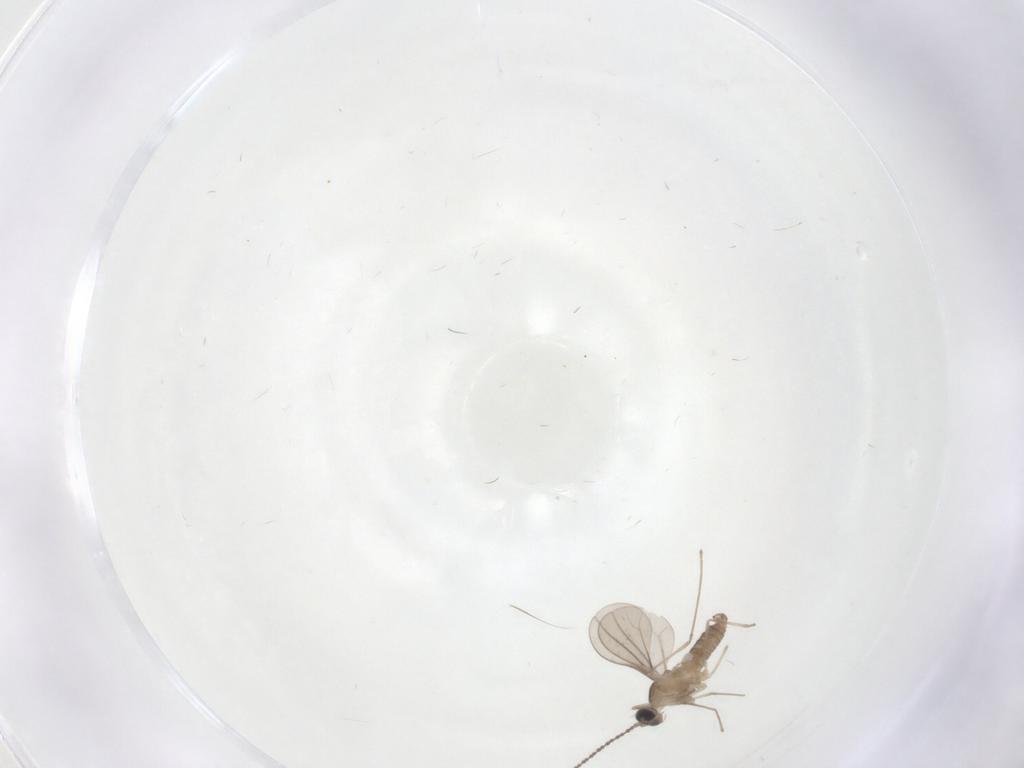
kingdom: Animalia
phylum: Arthropoda
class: Insecta
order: Diptera
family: Cecidomyiidae
